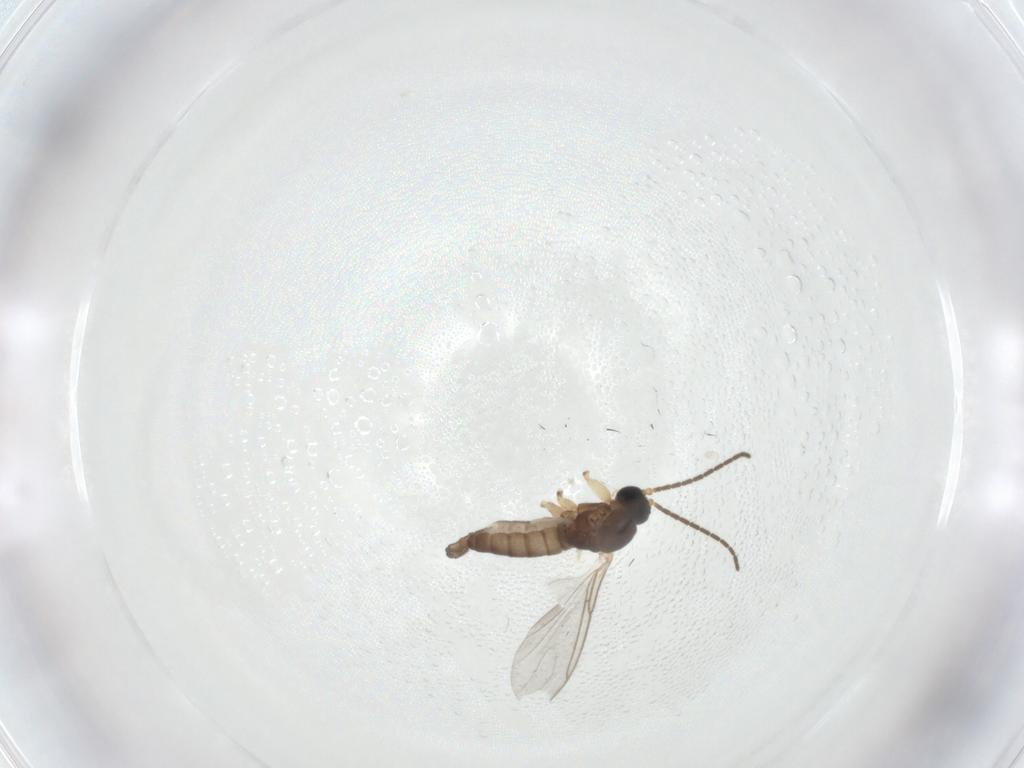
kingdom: Animalia
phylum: Arthropoda
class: Insecta
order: Diptera
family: Sciaridae
